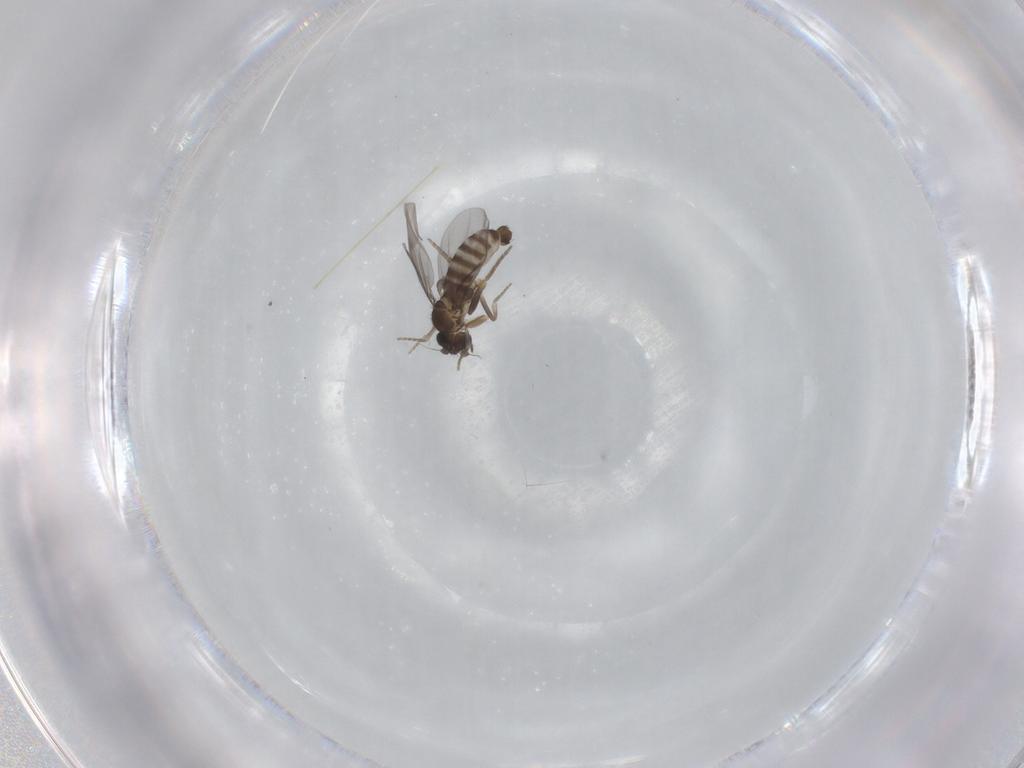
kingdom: Animalia
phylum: Arthropoda
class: Insecta
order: Diptera
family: Chironomidae
